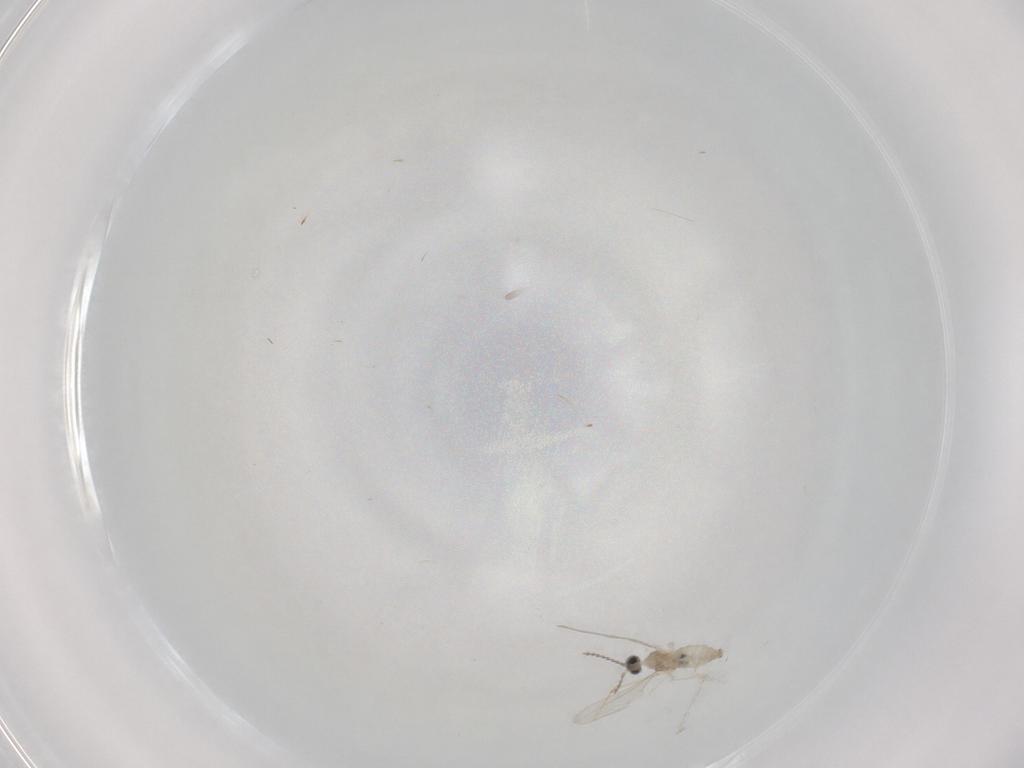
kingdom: Animalia
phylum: Arthropoda
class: Insecta
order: Diptera
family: Cecidomyiidae
